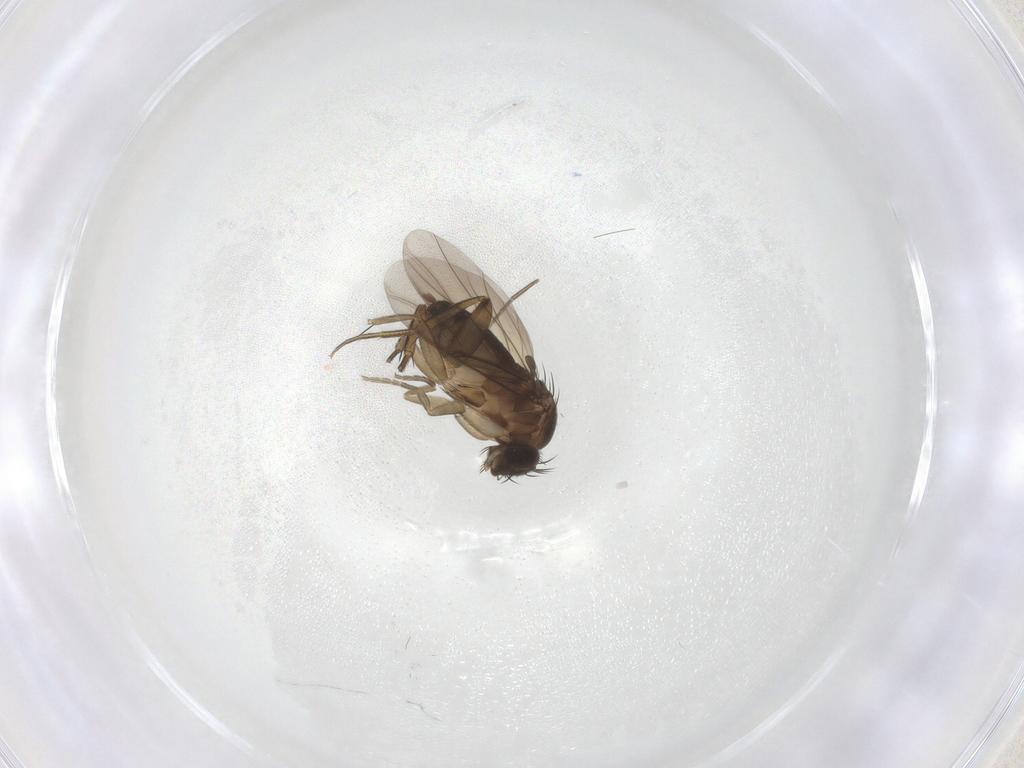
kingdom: Animalia
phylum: Arthropoda
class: Insecta
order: Diptera
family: Phoridae
